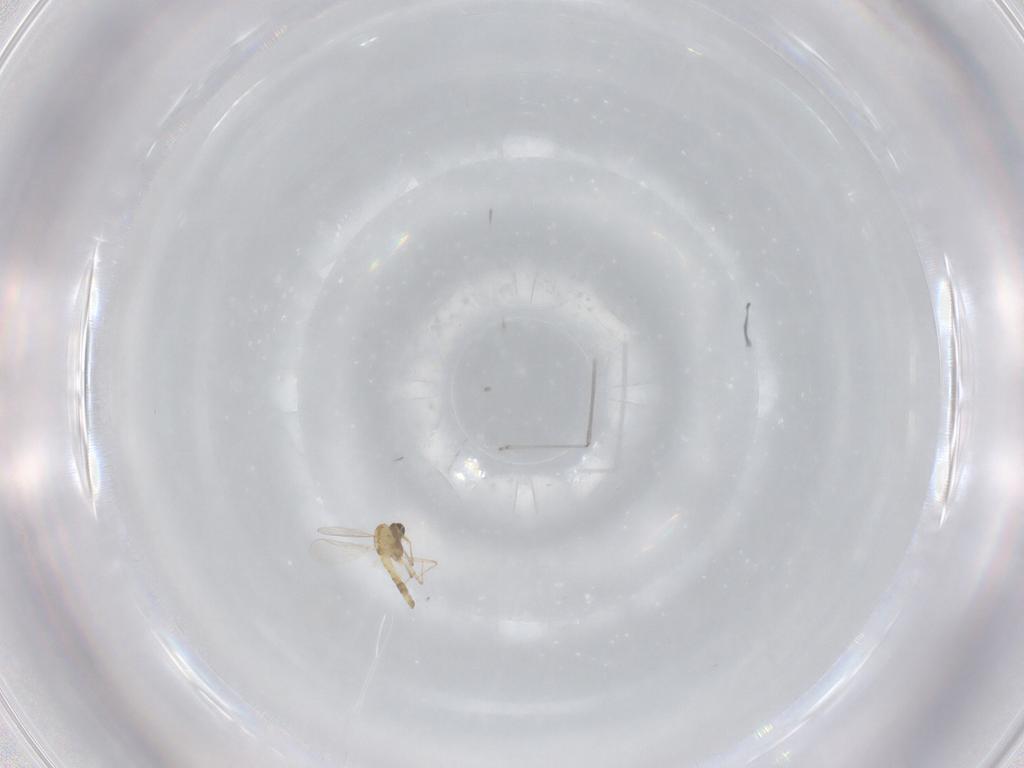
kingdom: Animalia
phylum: Arthropoda
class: Insecta
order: Diptera
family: Chironomidae
